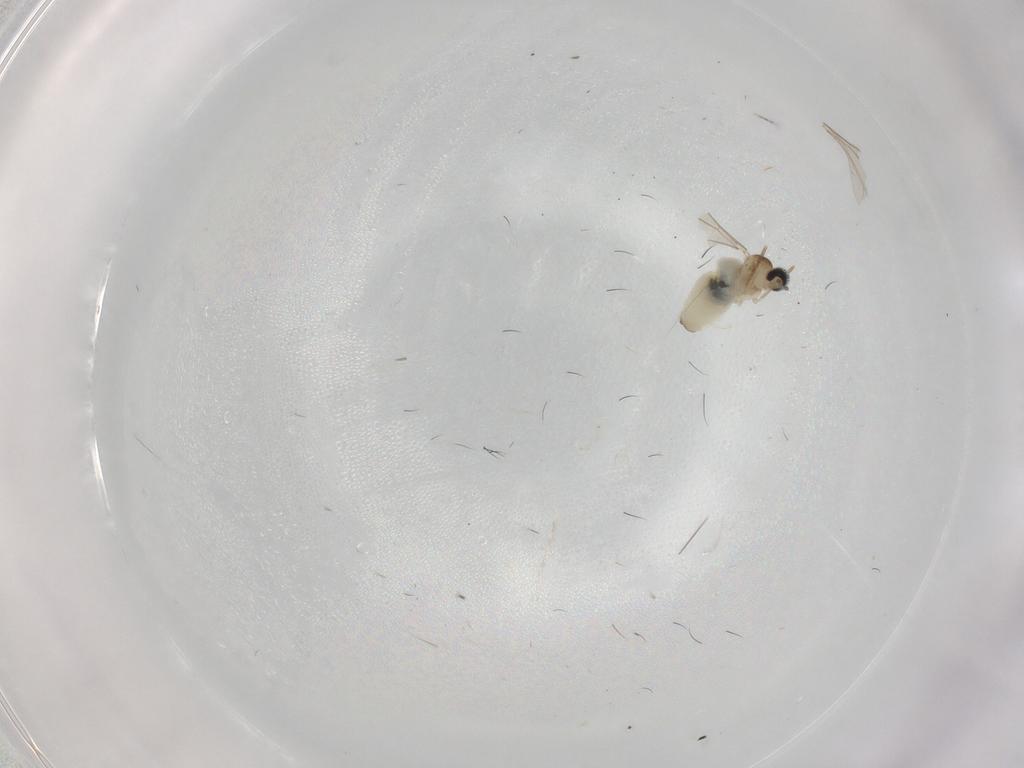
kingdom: Animalia
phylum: Arthropoda
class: Insecta
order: Diptera
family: Cecidomyiidae
